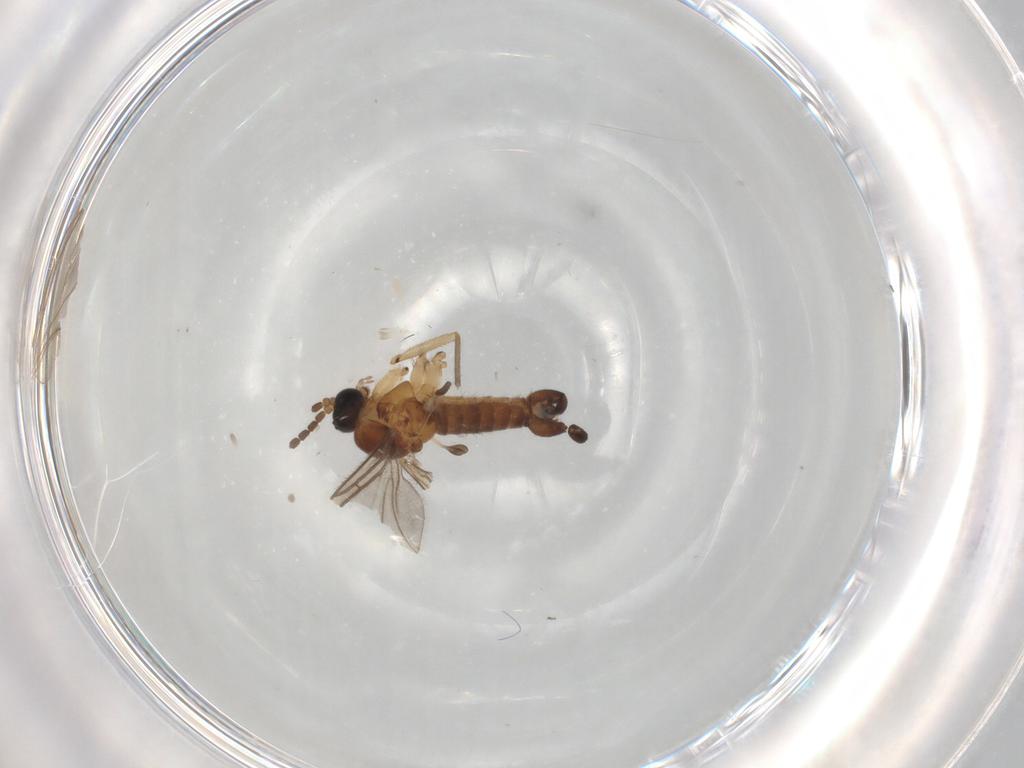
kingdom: Animalia
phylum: Arthropoda
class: Insecta
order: Diptera
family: Sciaridae
